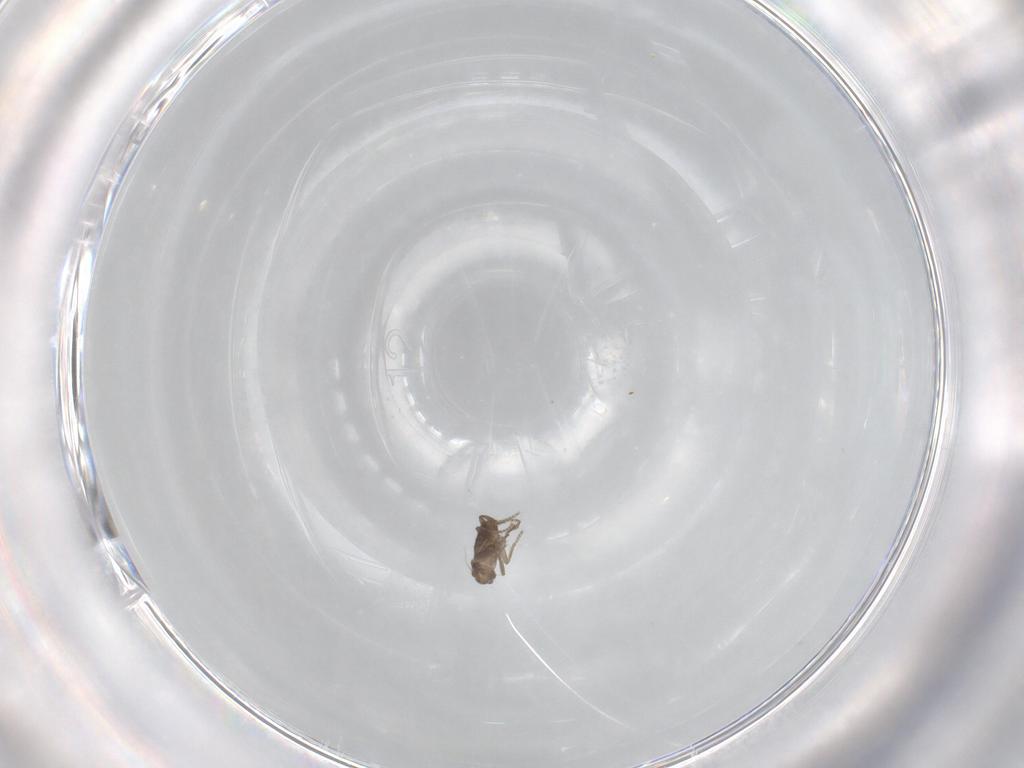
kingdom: Animalia
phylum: Arthropoda
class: Insecta
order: Diptera
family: Phoridae
